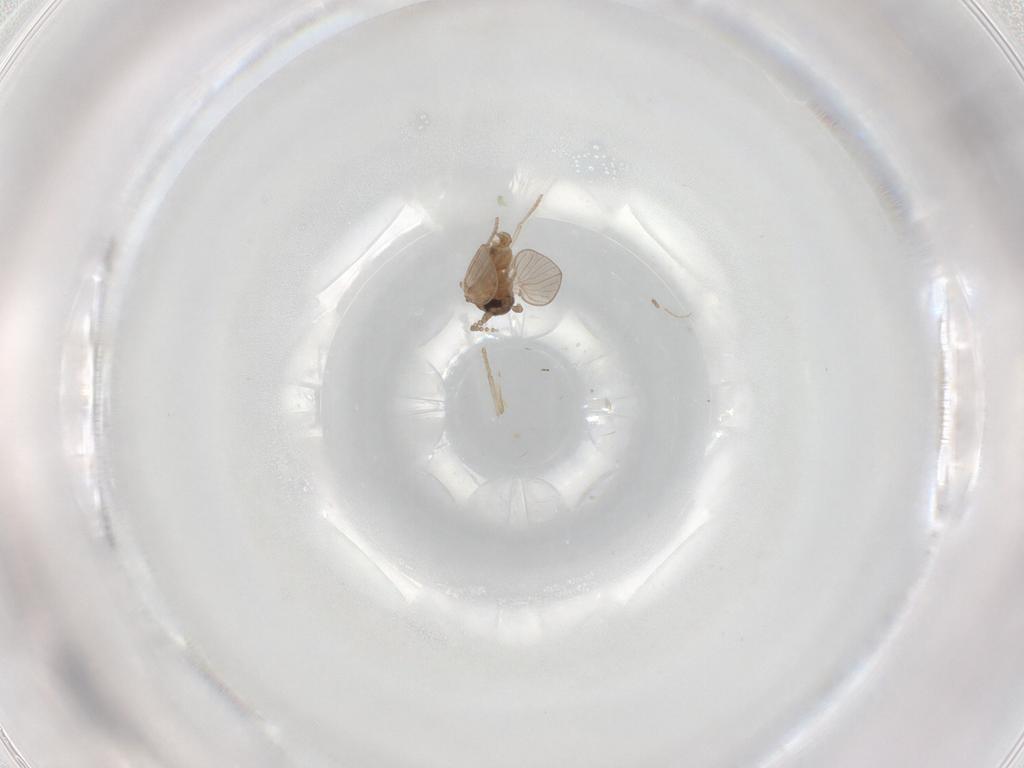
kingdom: Animalia
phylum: Arthropoda
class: Insecta
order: Diptera
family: Psychodidae
